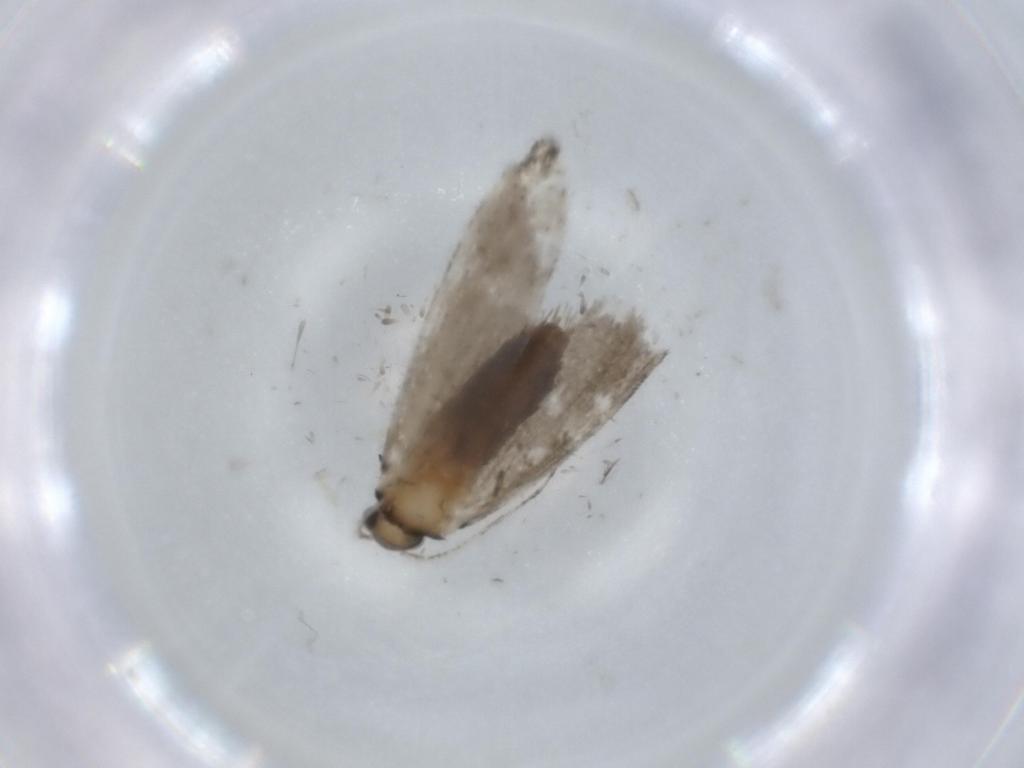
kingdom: Animalia
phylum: Arthropoda
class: Insecta
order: Lepidoptera
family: Tineidae
